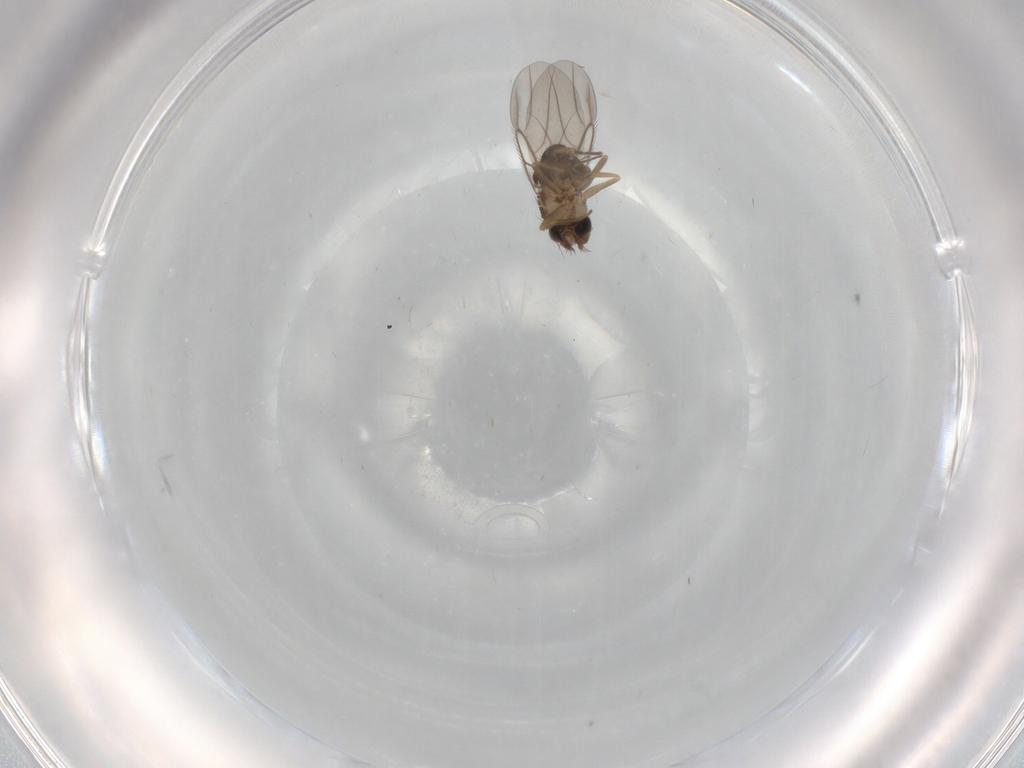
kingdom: Animalia
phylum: Arthropoda
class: Insecta
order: Diptera
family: Phoridae
